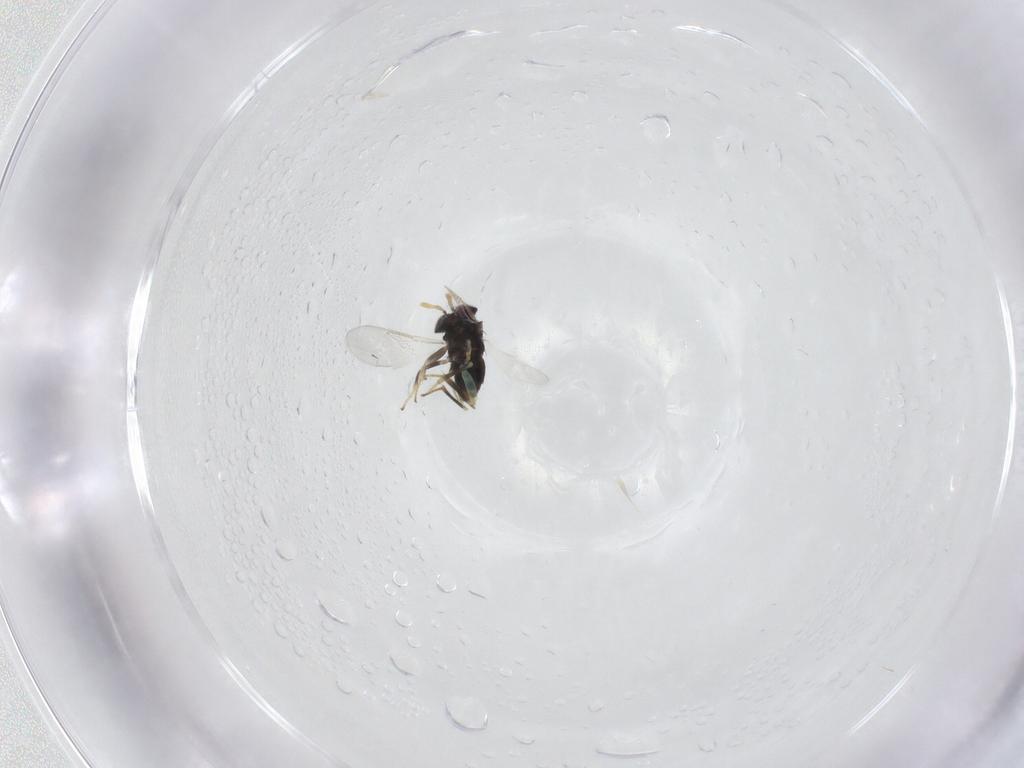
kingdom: Animalia
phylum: Arthropoda
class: Insecta
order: Hymenoptera
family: Aphelinidae
